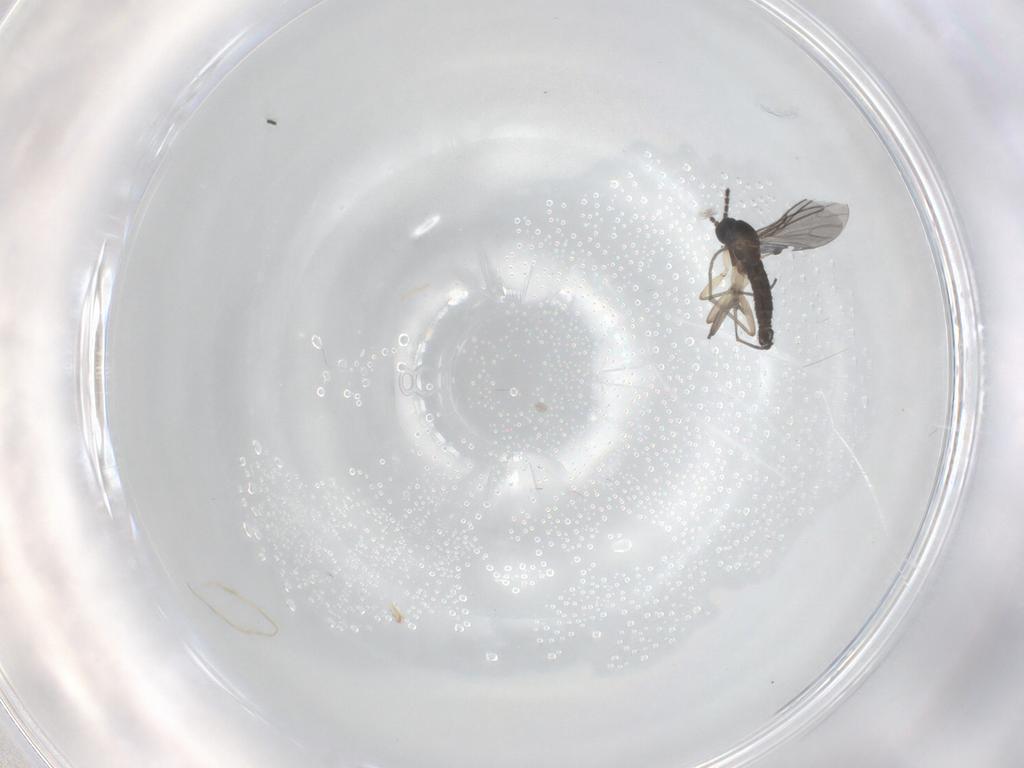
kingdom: Animalia
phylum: Arthropoda
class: Insecta
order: Diptera
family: Sciaridae
